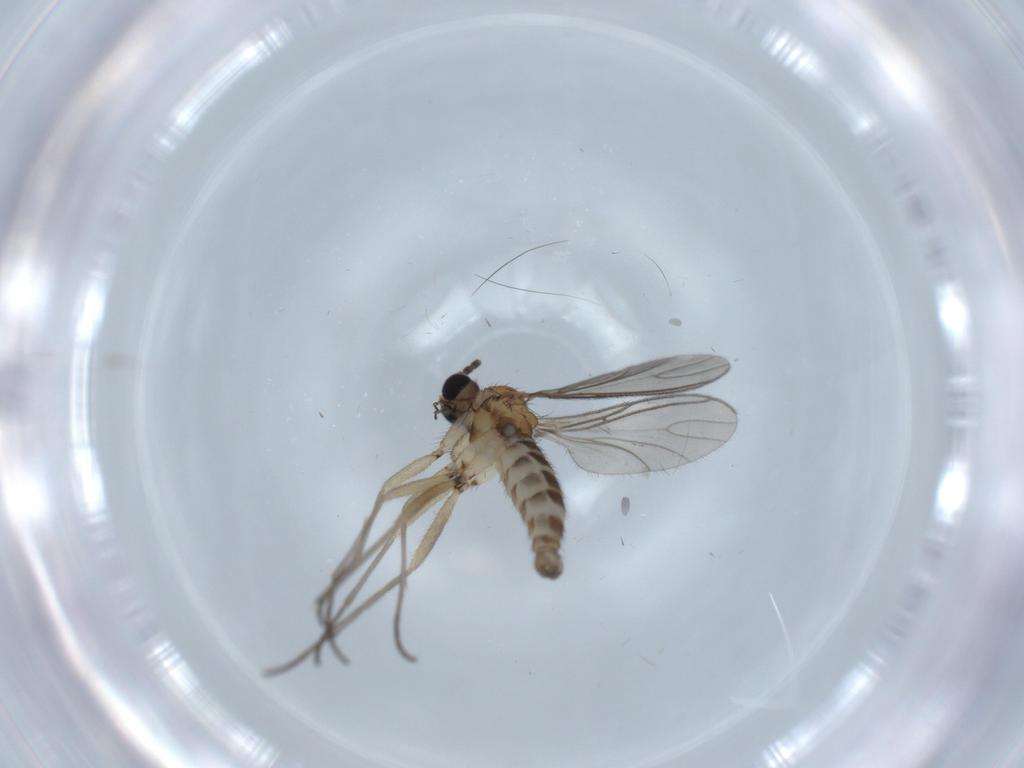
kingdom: Animalia
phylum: Arthropoda
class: Insecta
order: Diptera
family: Sciaridae
